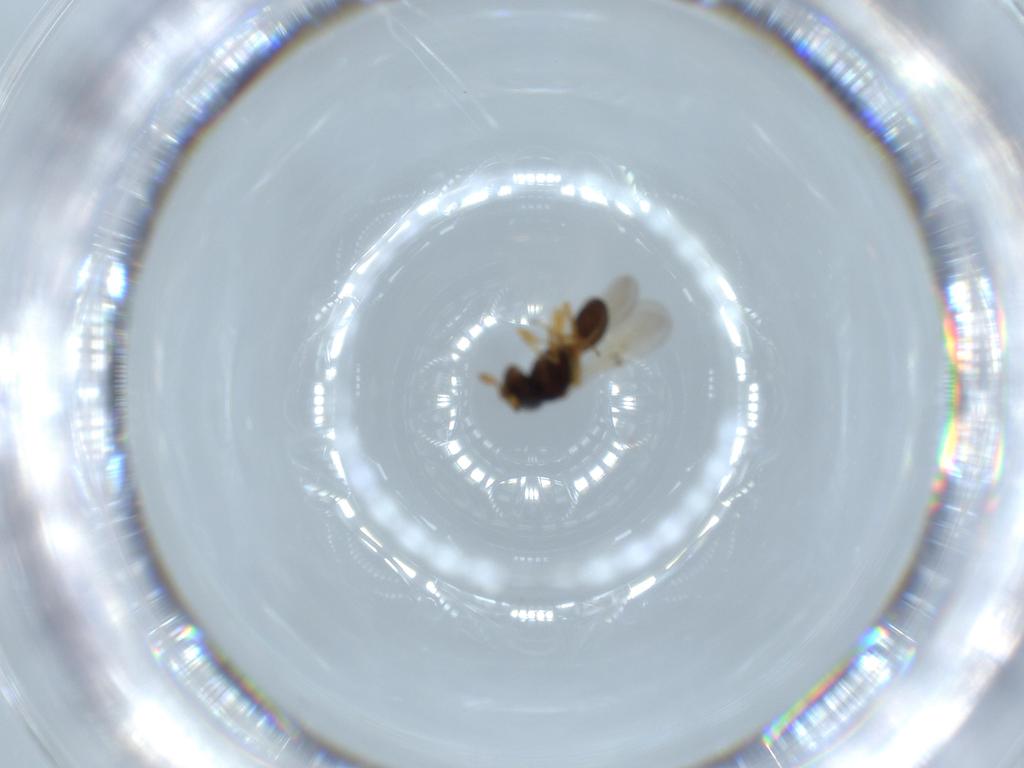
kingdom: Animalia
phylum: Arthropoda
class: Insecta
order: Hymenoptera
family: Scelionidae
